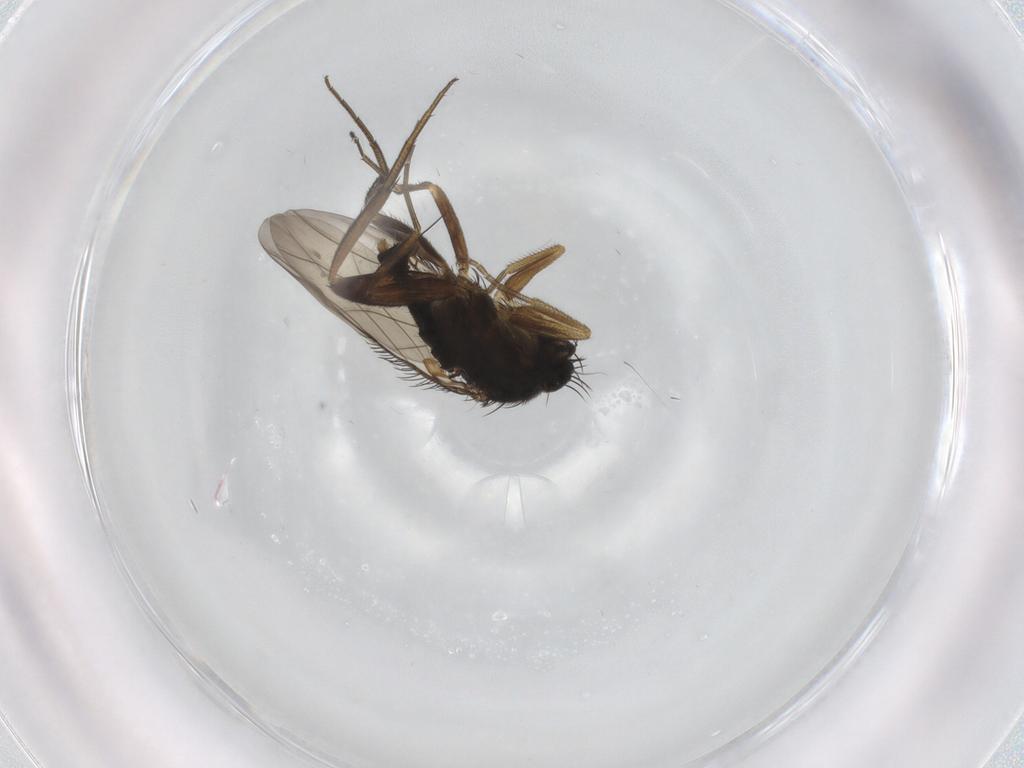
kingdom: Animalia
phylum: Arthropoda
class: Insecta
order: Diptera
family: Phoridae
